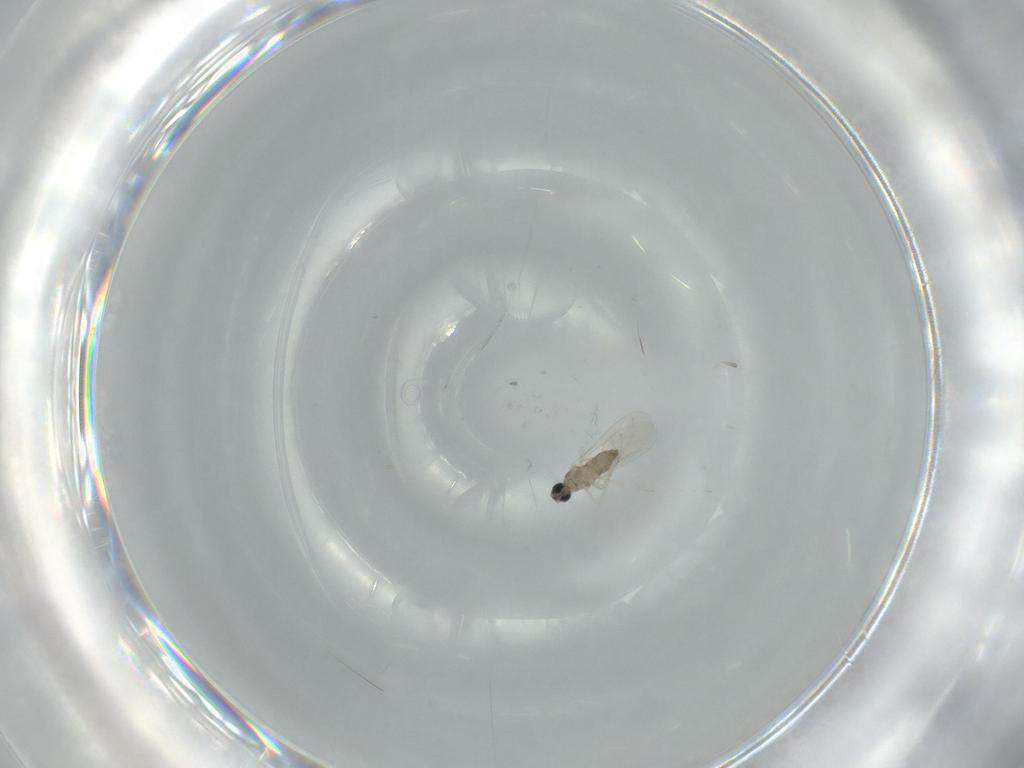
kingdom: Animalia
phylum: Arthropoda
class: Insecta
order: Diptera
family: Cecidomyiidae
